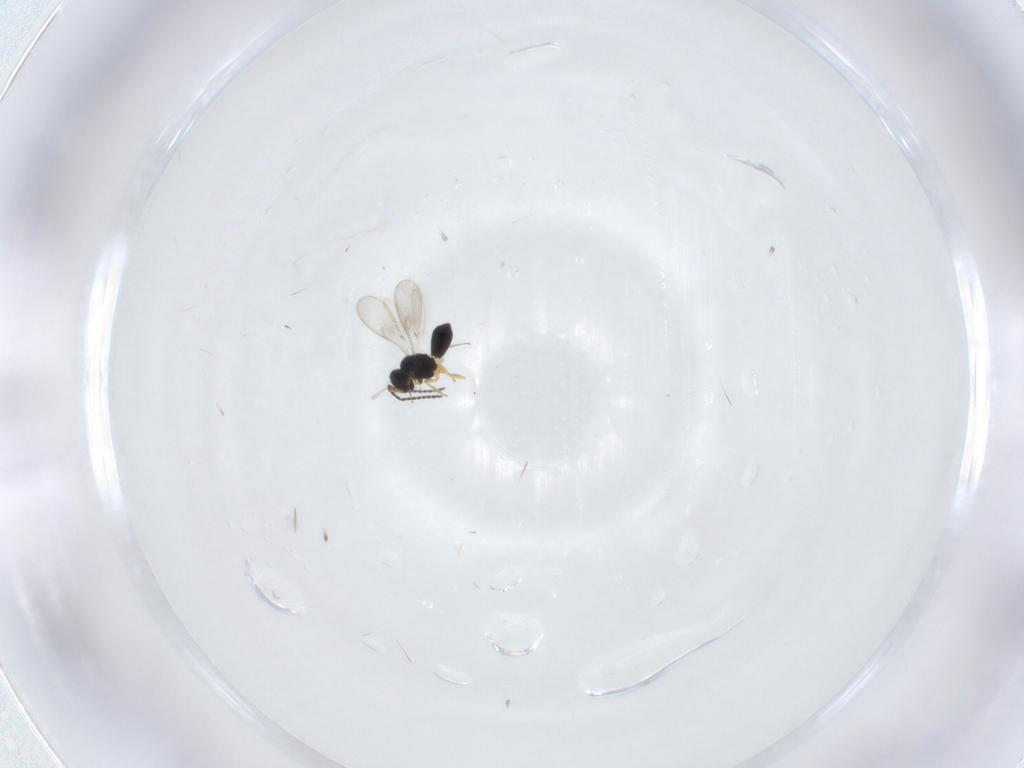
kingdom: Animalia
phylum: Arthropoda
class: Insecta
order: Hymenoptera
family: Scelionidae
